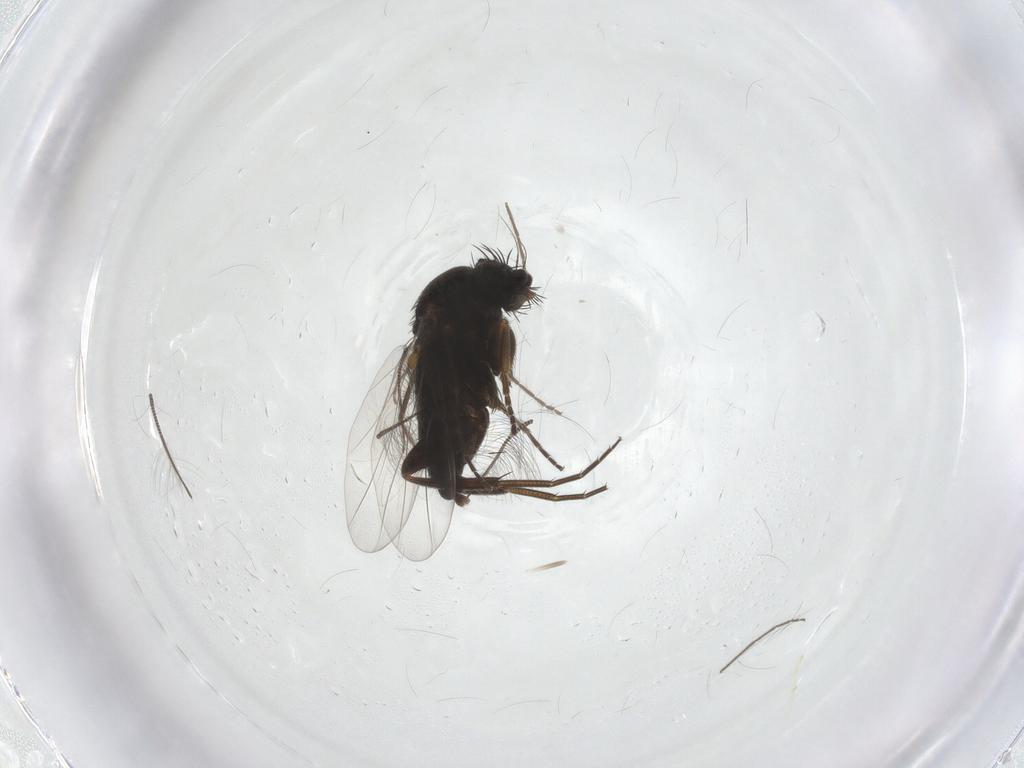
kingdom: Animalia
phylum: Arthropoda
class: Insecta
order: Diptera
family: Phoridae
